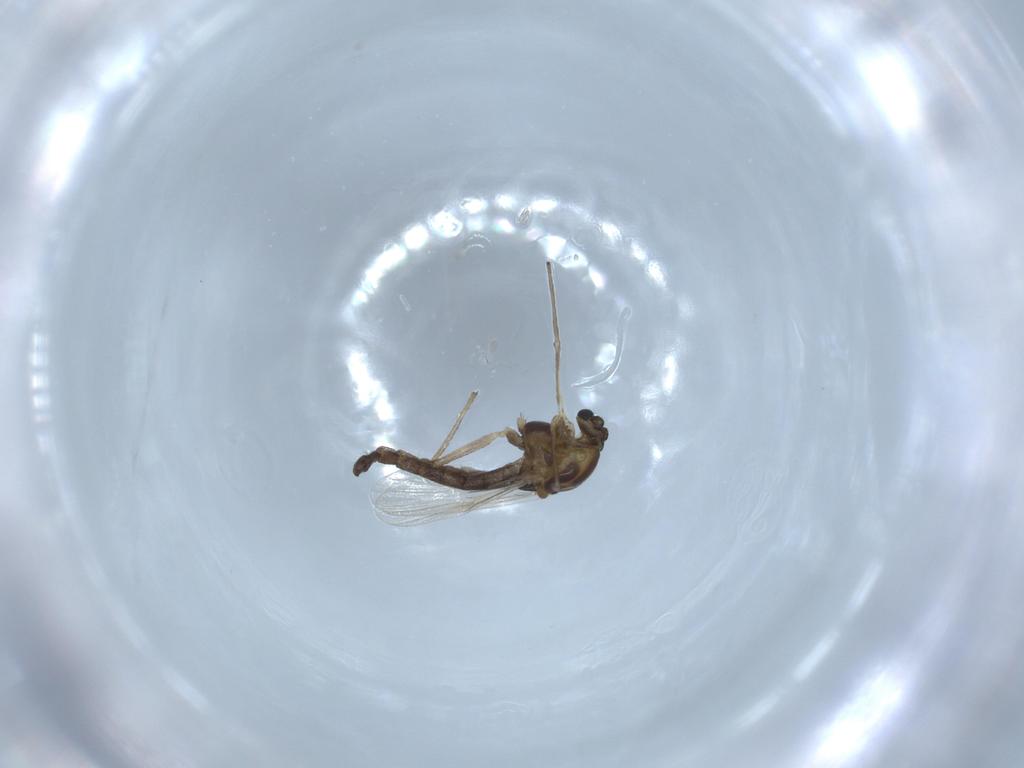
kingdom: Animalia
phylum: Arthropoda
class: Insecta
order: Diptera
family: Chironomidae
